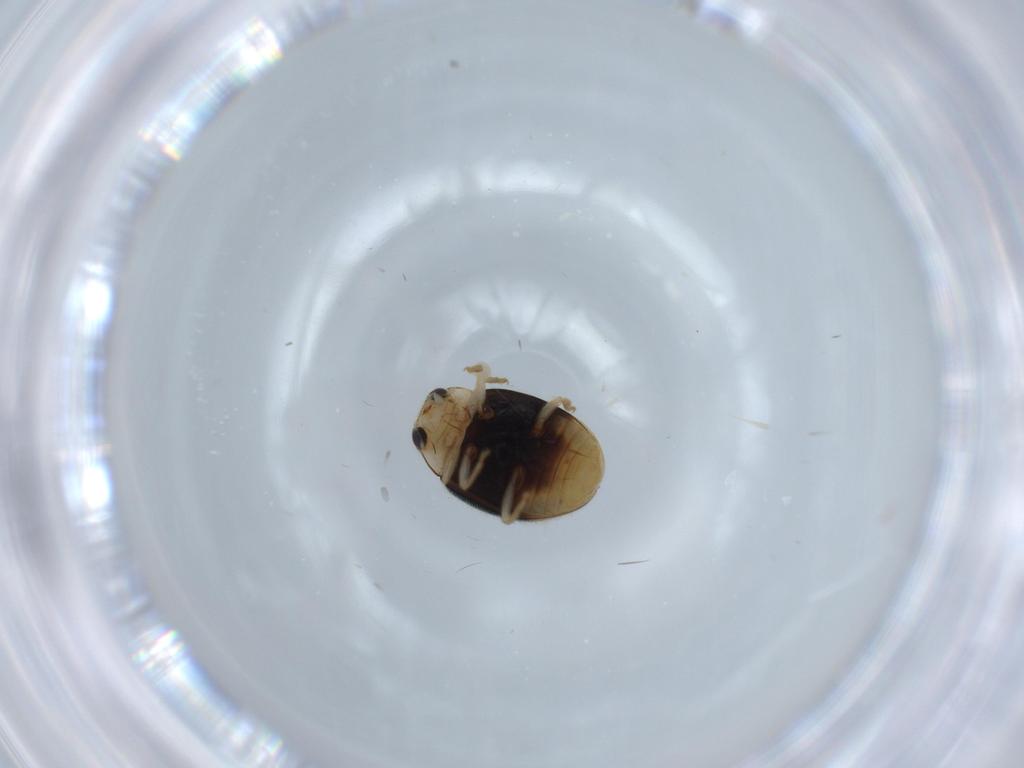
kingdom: Animalia
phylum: Arthropoda
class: Insecta
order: Coleoptera
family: Coccinellidae
